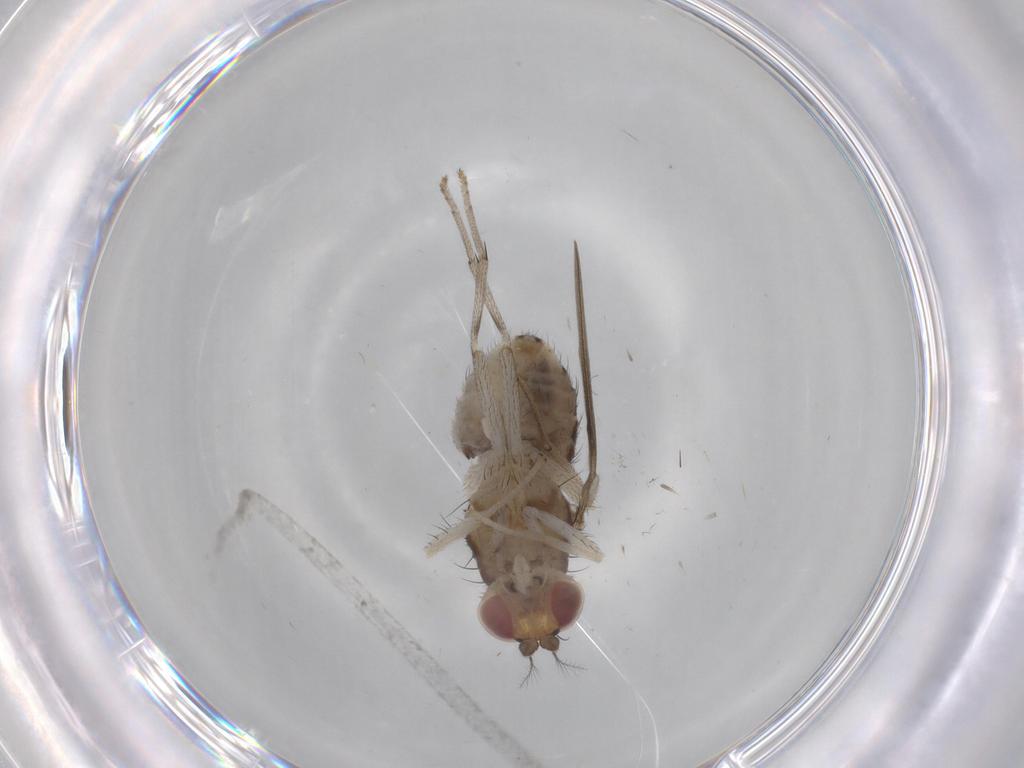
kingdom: Animalia
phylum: Arthropoda
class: Insecta
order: Diptera
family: Lauxaniidae
